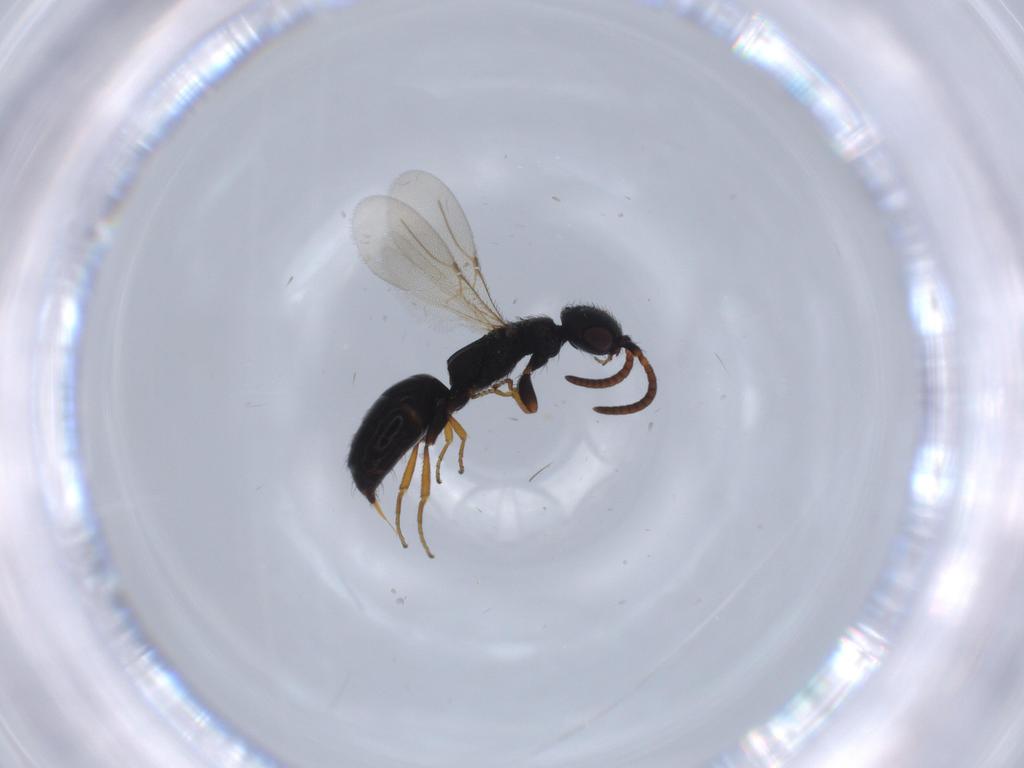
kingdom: Animalia
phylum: Arthropoda
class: Insecta
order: Hymenoptera
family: Bethylidae
